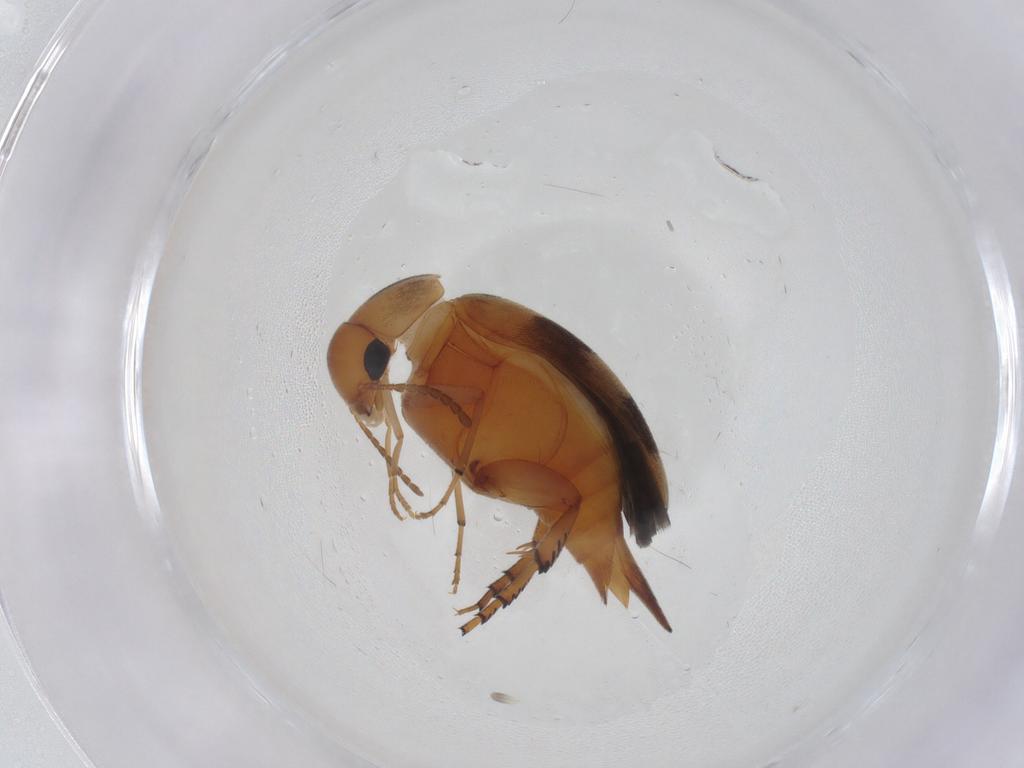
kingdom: Animalia
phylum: Arthropoda
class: Insecta
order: Coleoptera
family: Mordellidae
